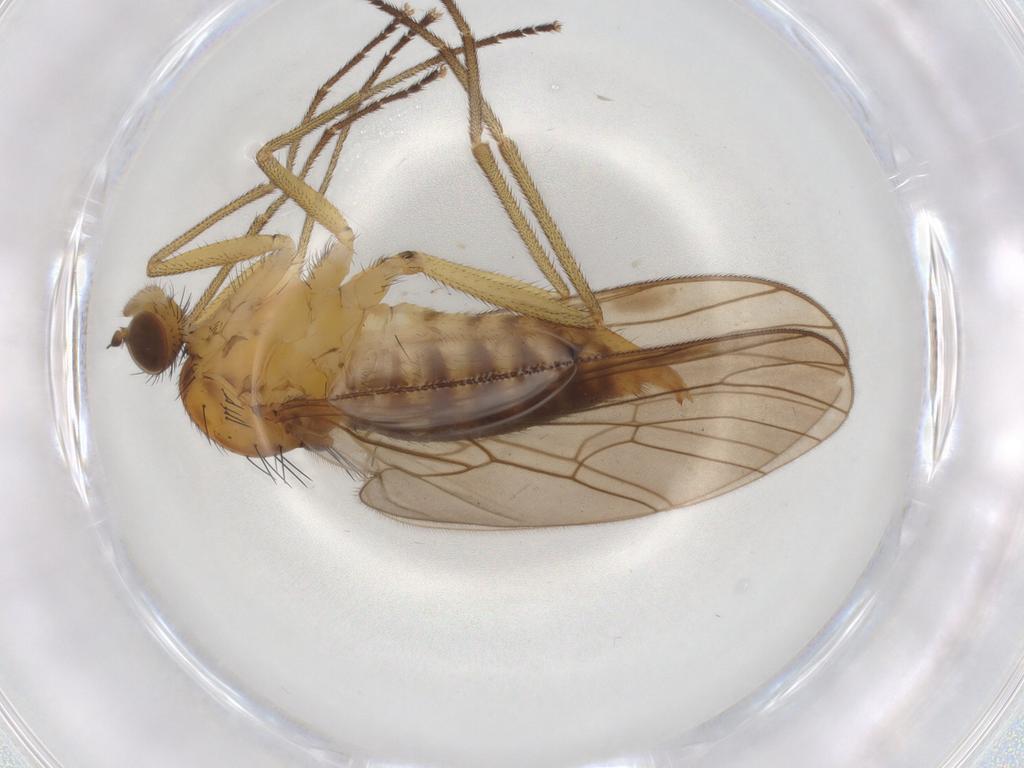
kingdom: Animalia
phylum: Arthropoda
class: Insecta
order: Diptera
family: Brachystomatidae
